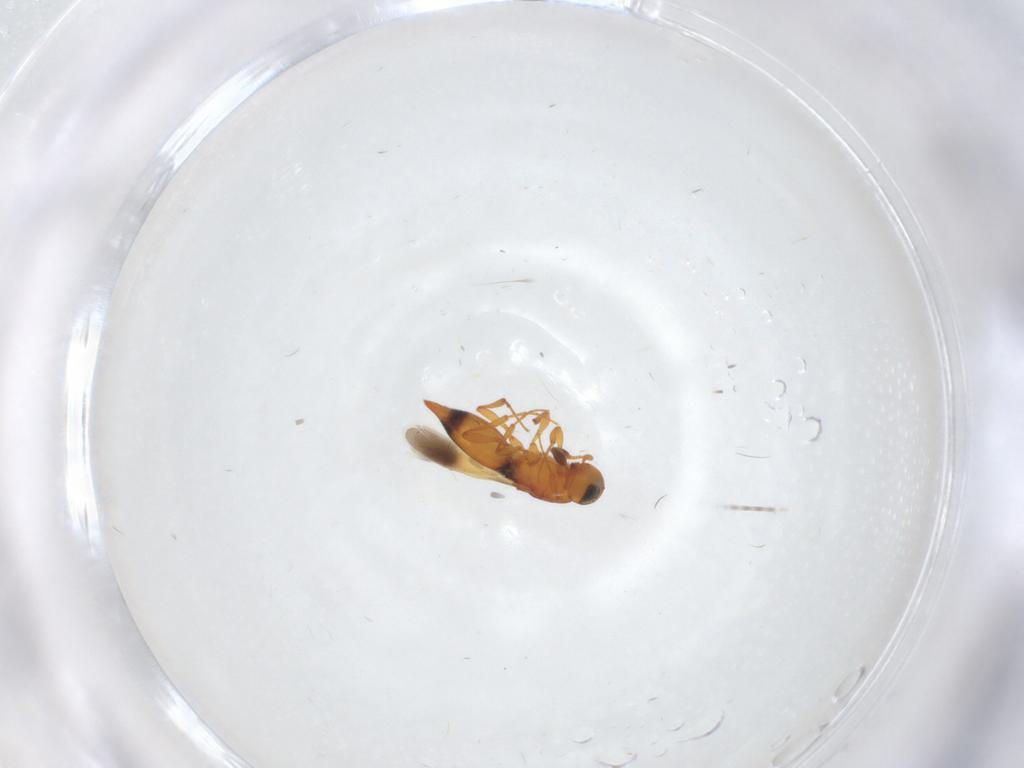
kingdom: Animalia
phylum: Arthropoda
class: Insecta
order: Hymenoptera
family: Platygastridae
